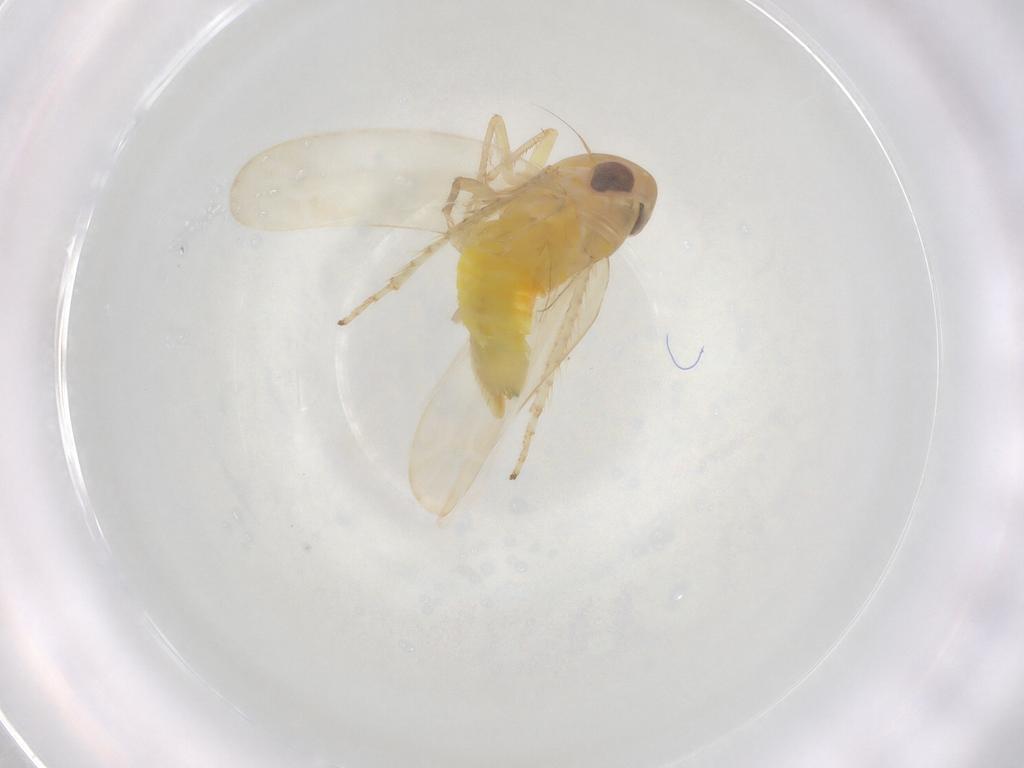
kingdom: Animalia
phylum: Arthropoda
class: Insecta
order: Hemiptera
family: Cicadellidae
